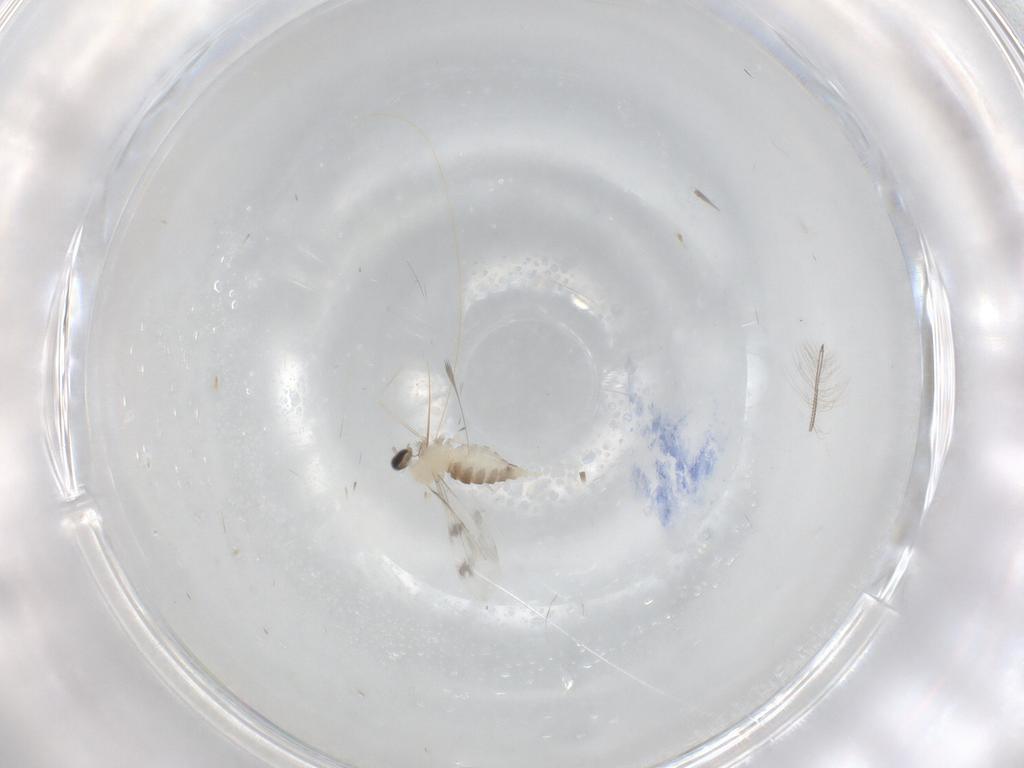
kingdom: Animalia
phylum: Arthropoda
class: Insecta
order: Diptera
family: Cecidomyiidae
